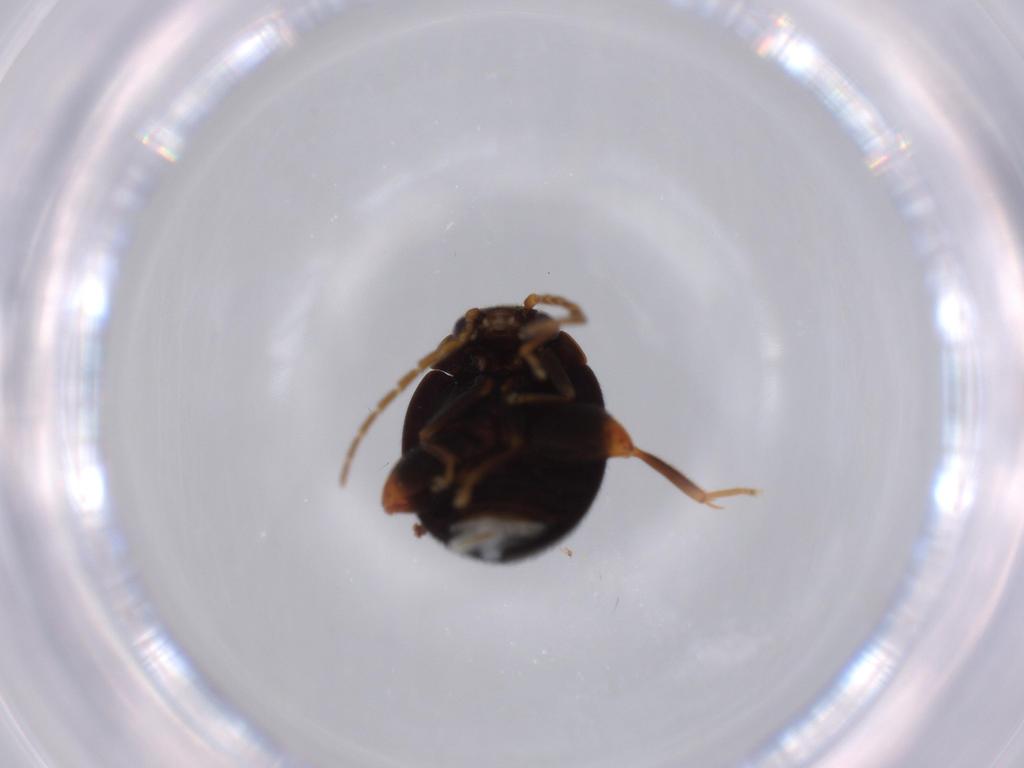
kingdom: Animalia
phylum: Arthropoda
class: Insecta
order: Coleoptera
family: Scirtidae
